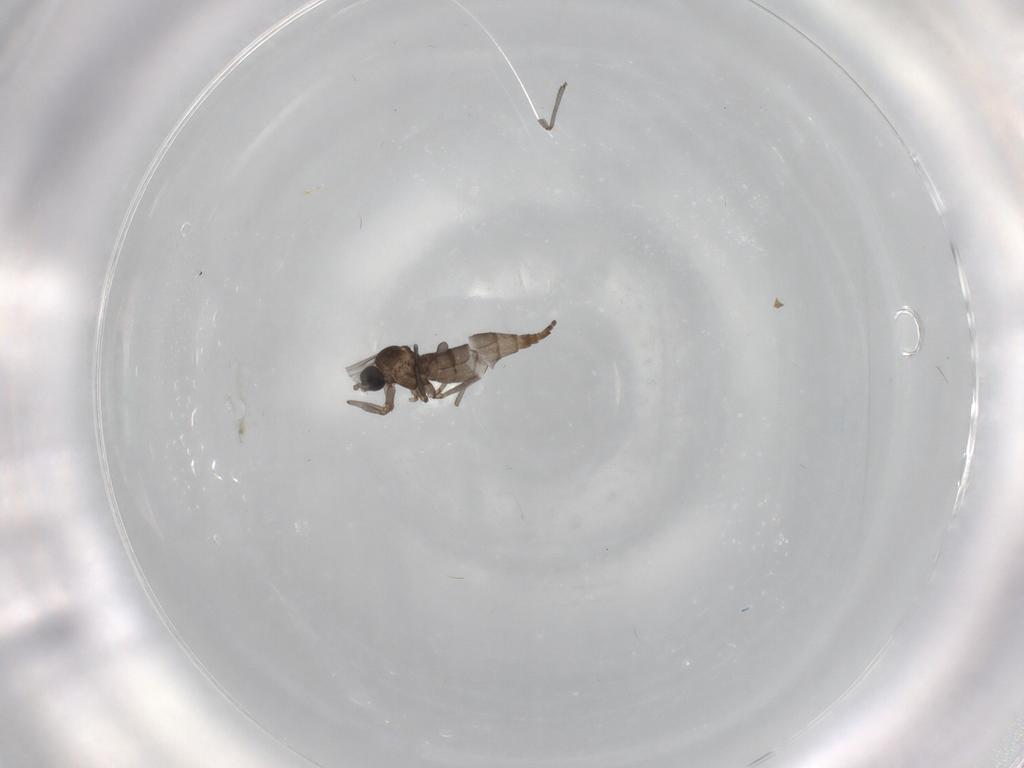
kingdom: Animalia
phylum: Arthropoda
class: Insecta
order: Diptera
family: Sciaridae
